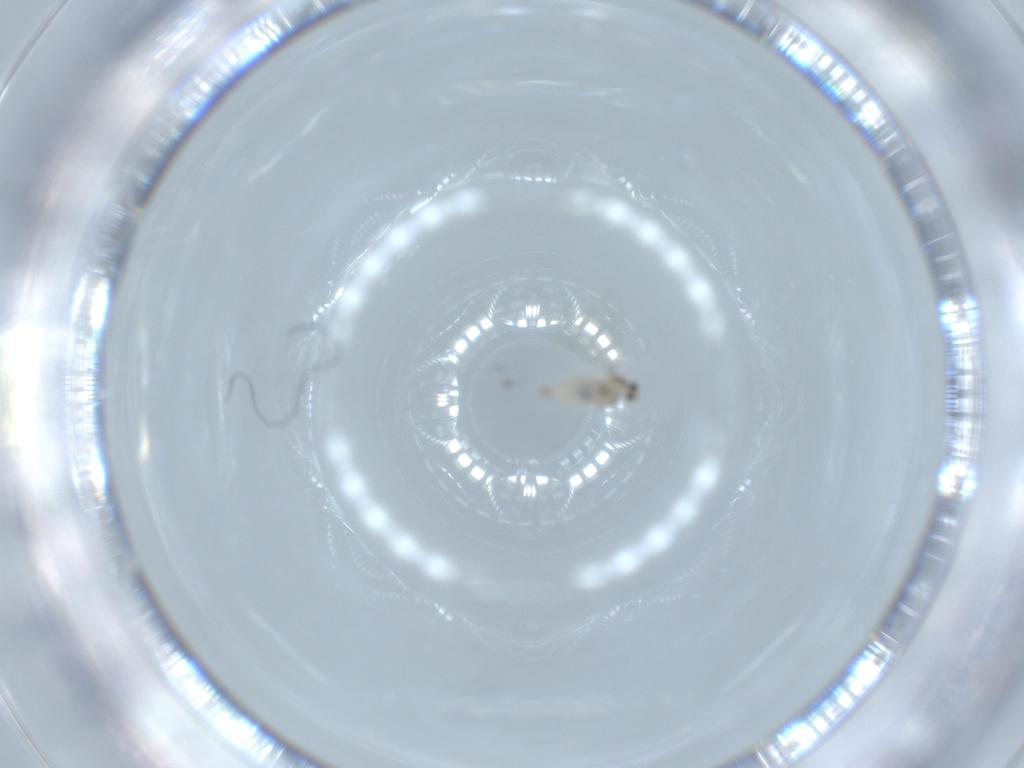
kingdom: Animalia
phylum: Arthropoda
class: Insecta
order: Diptera
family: Cecidomyiidae
